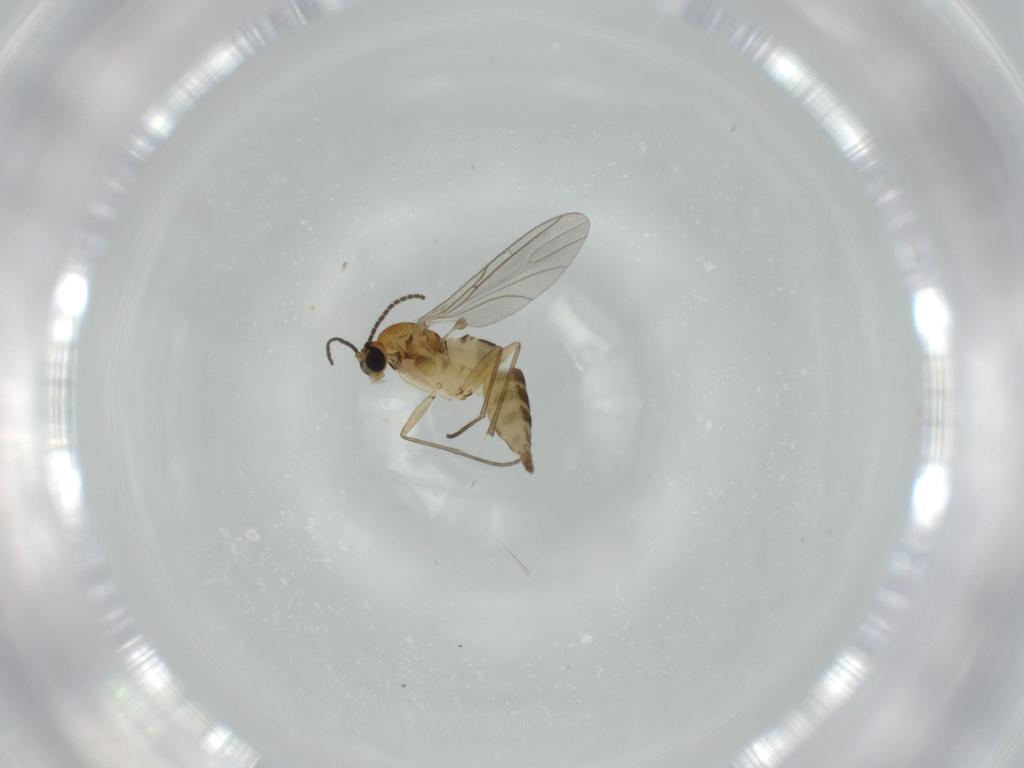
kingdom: Animalia
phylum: Arthropoda
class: Insecta
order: Diptera
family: Sciaridae
